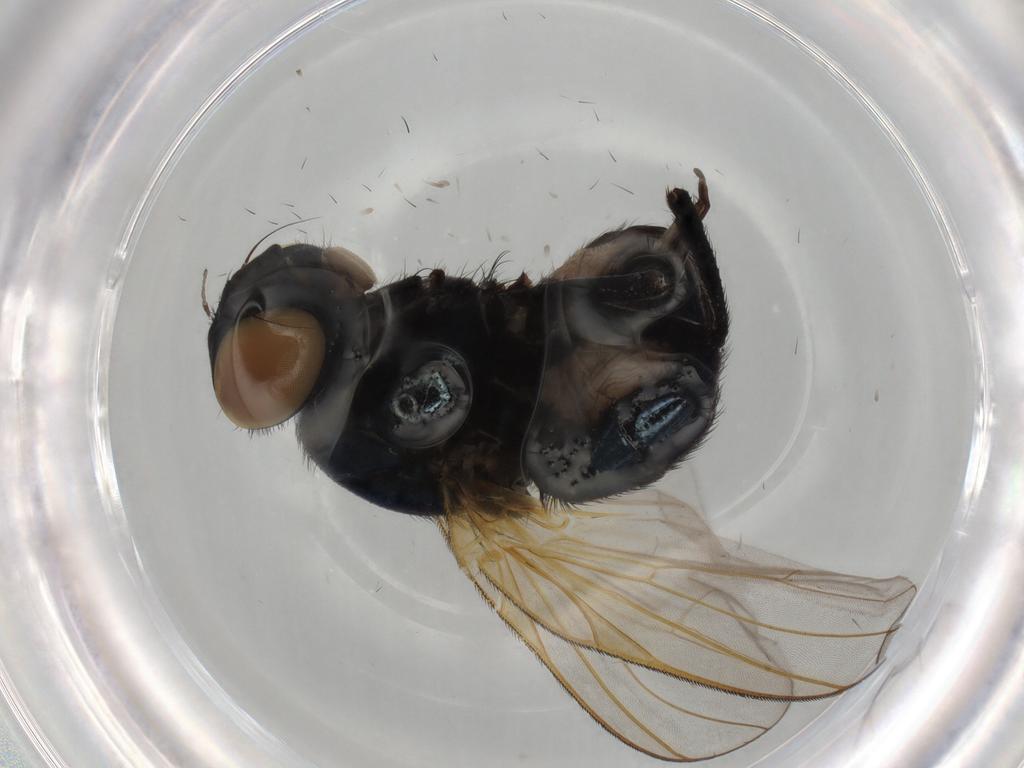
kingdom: Animalia
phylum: Arthropoda
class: Insecta
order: Diptera
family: Lonchaeidae
